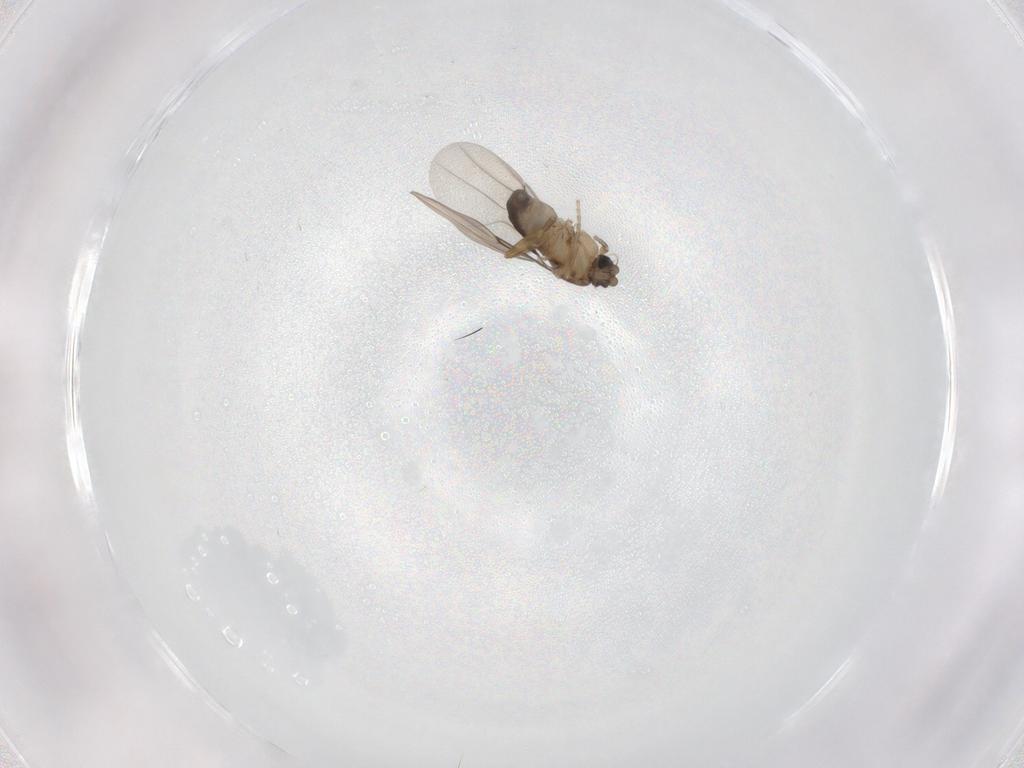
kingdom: Animalia
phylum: Arthropoda
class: Insecta
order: Diptera
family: Phoridae
